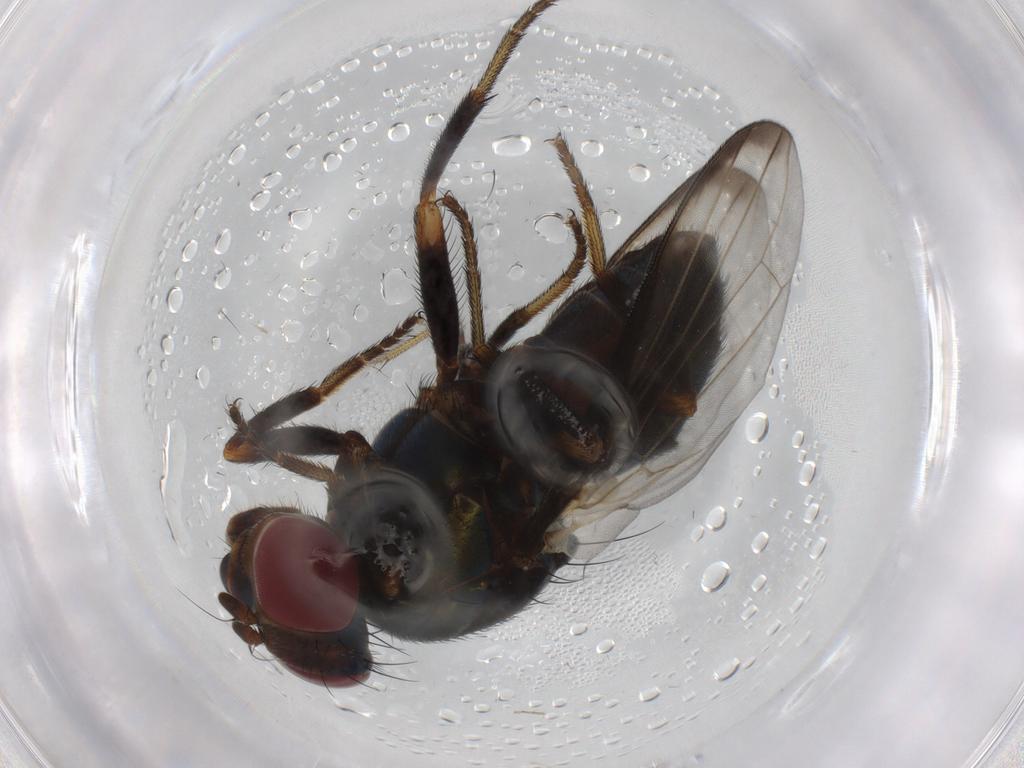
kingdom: Animalia
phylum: Arthropoda
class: Insecta
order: Diptera
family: Ulidiidae
